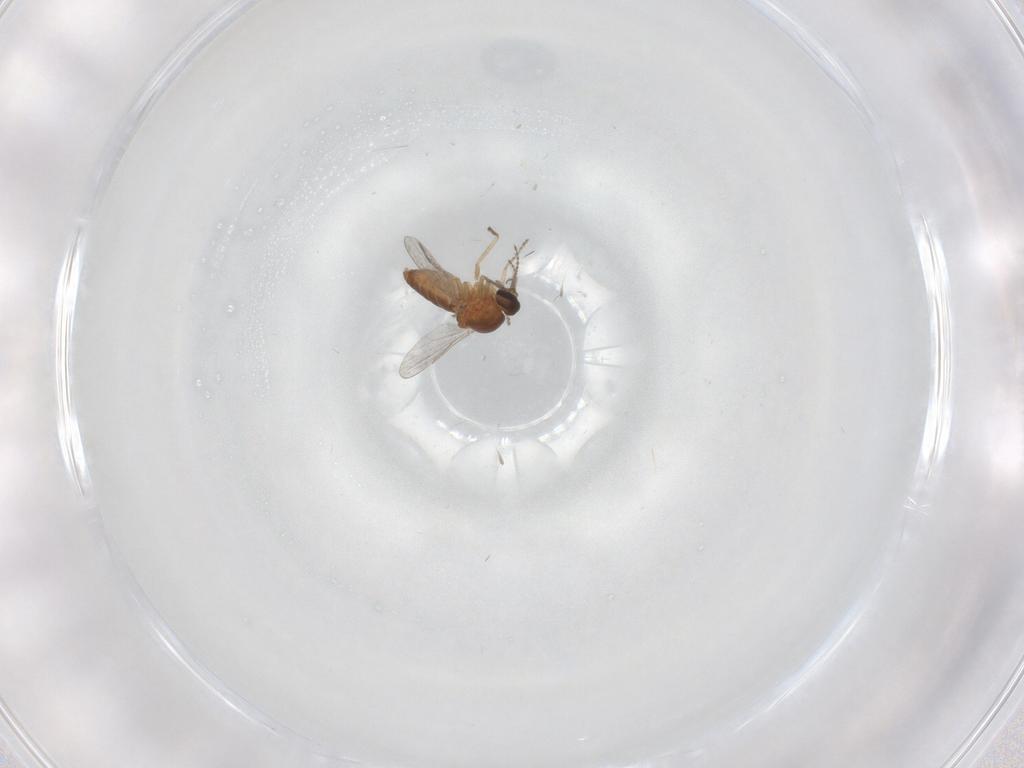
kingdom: Animalia
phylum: Arthropoda
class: Insecta
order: Diptera
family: Ceratopogonidae
